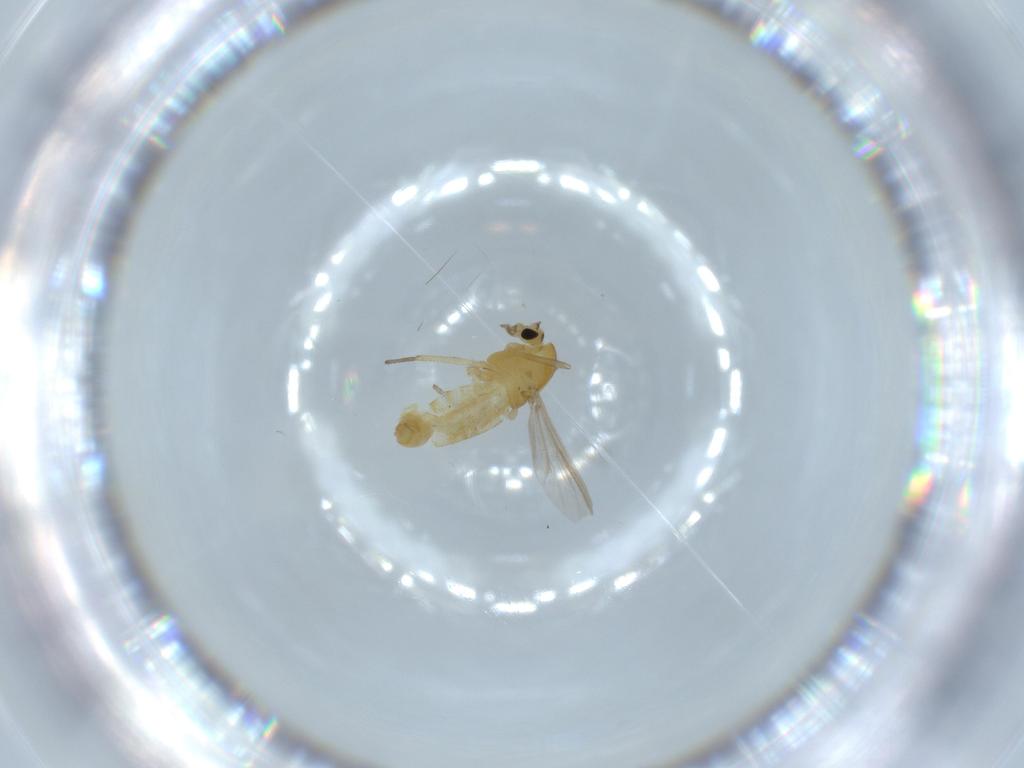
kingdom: Animalia
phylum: Arthropoda
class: Insecta
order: Diptera
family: Chironomidae
